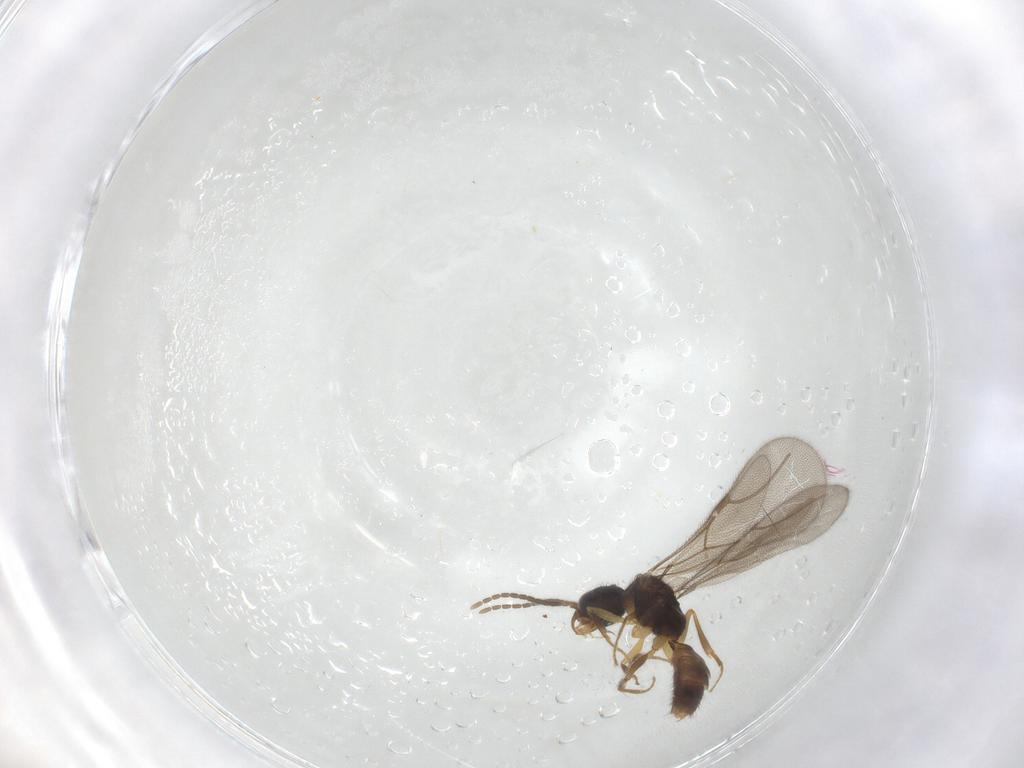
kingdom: Animalia
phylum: Arthropoda
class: Insecta
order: Hymenoptera
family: Bethylidae
